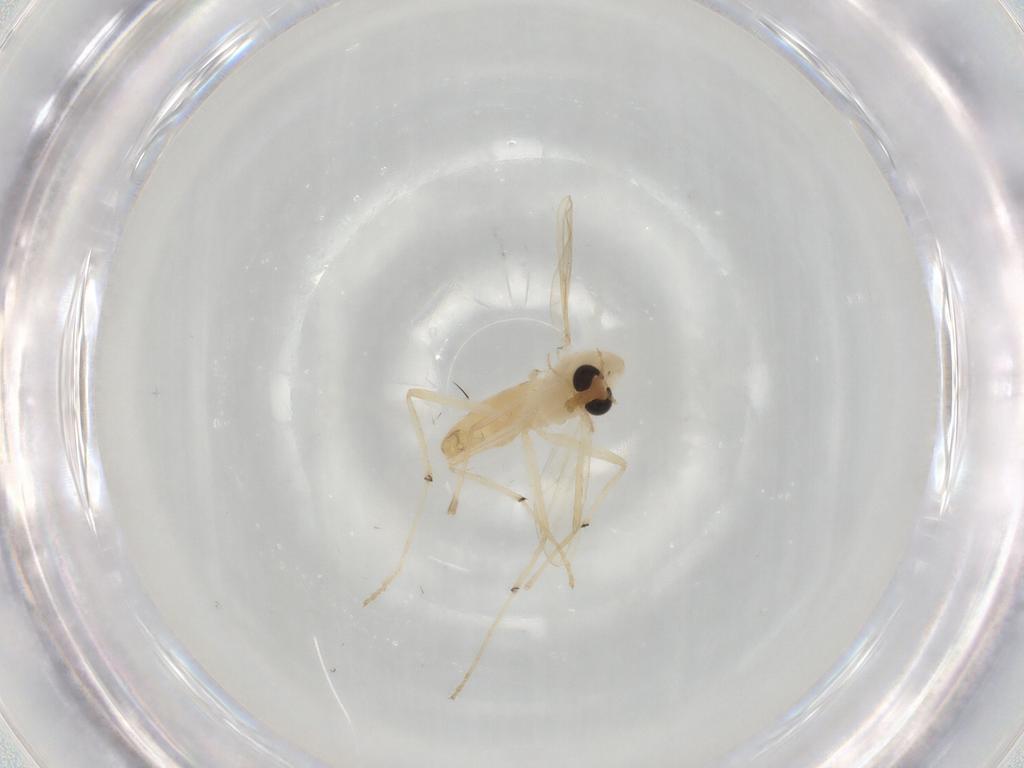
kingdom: Animalia
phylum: Arthropoda
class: Insecta
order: Diptera
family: Chironomidae
